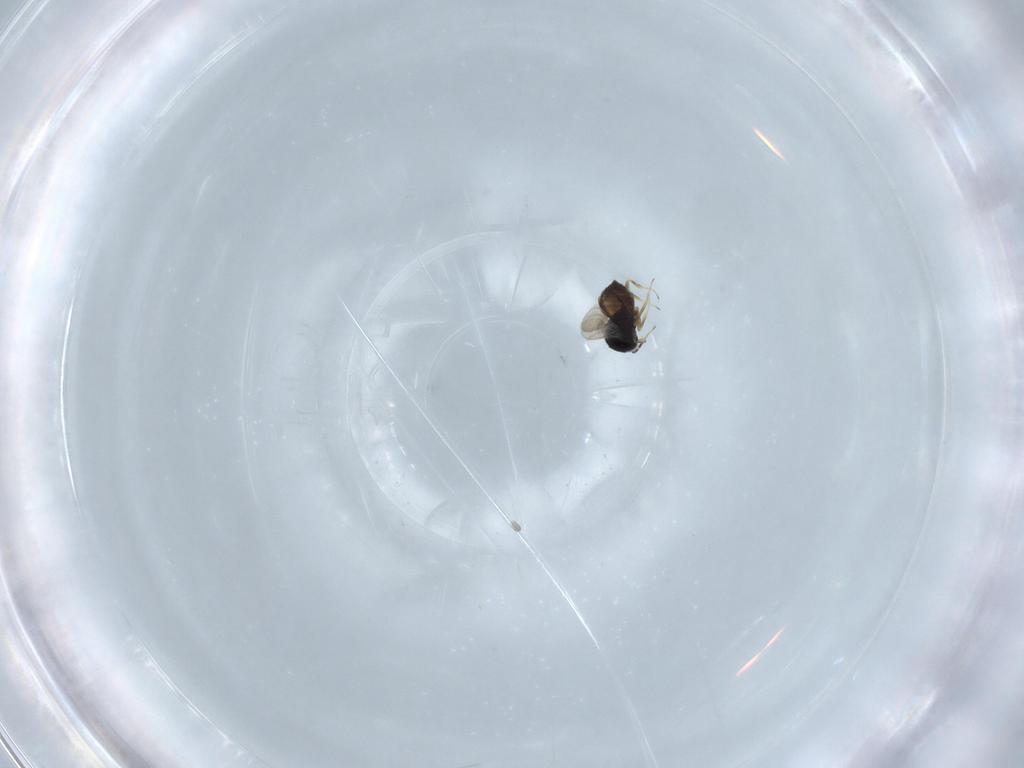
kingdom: Animalia
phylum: Arthropoda
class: Insecta
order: Hymenoptera
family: Scelionidae
